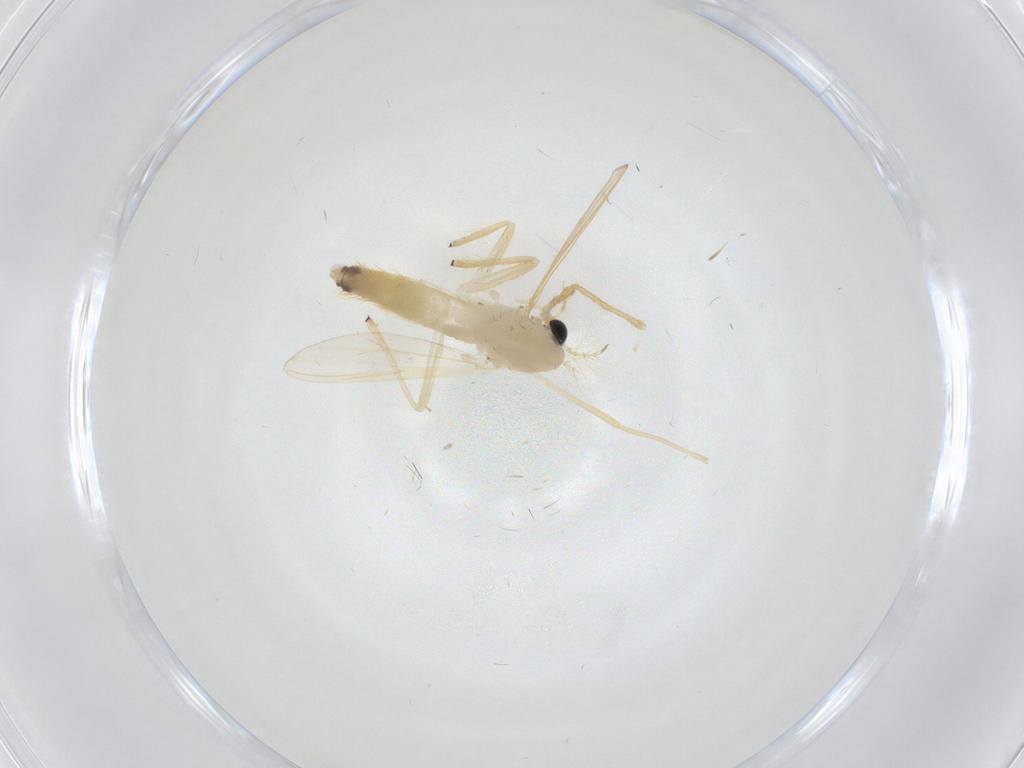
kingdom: Animalia
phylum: Arthropoda
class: Insecta
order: Diptera
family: Chironomidae
